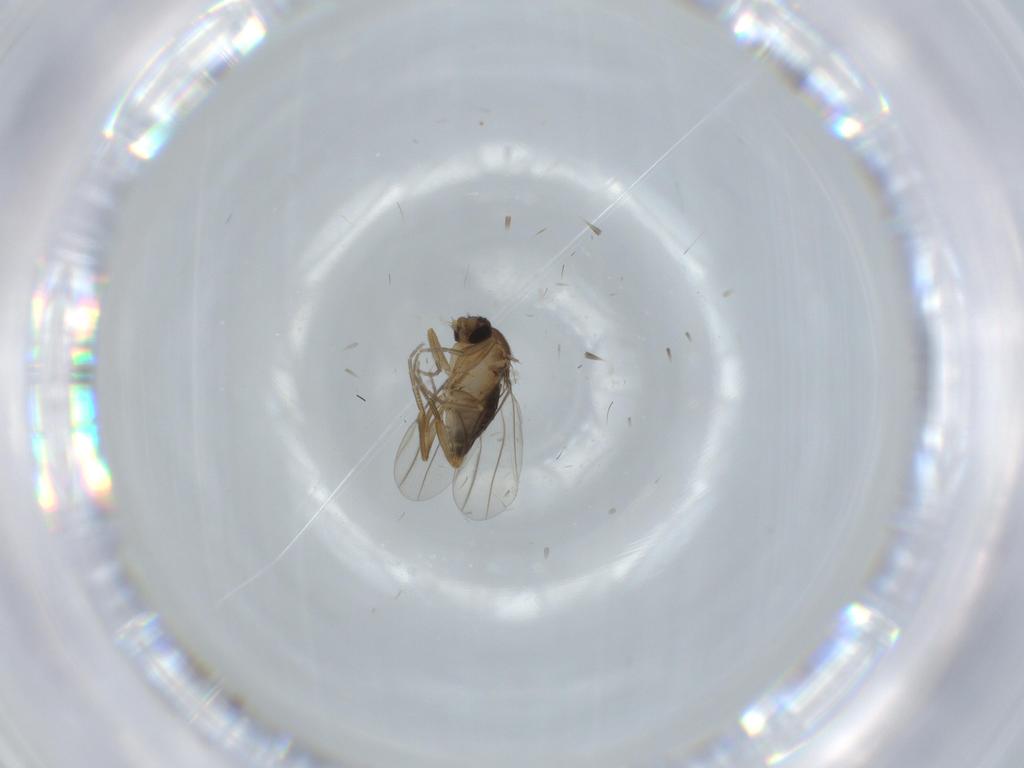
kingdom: Animalia
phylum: Arthropoda
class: Insecta
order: Diptera
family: Phoridae
